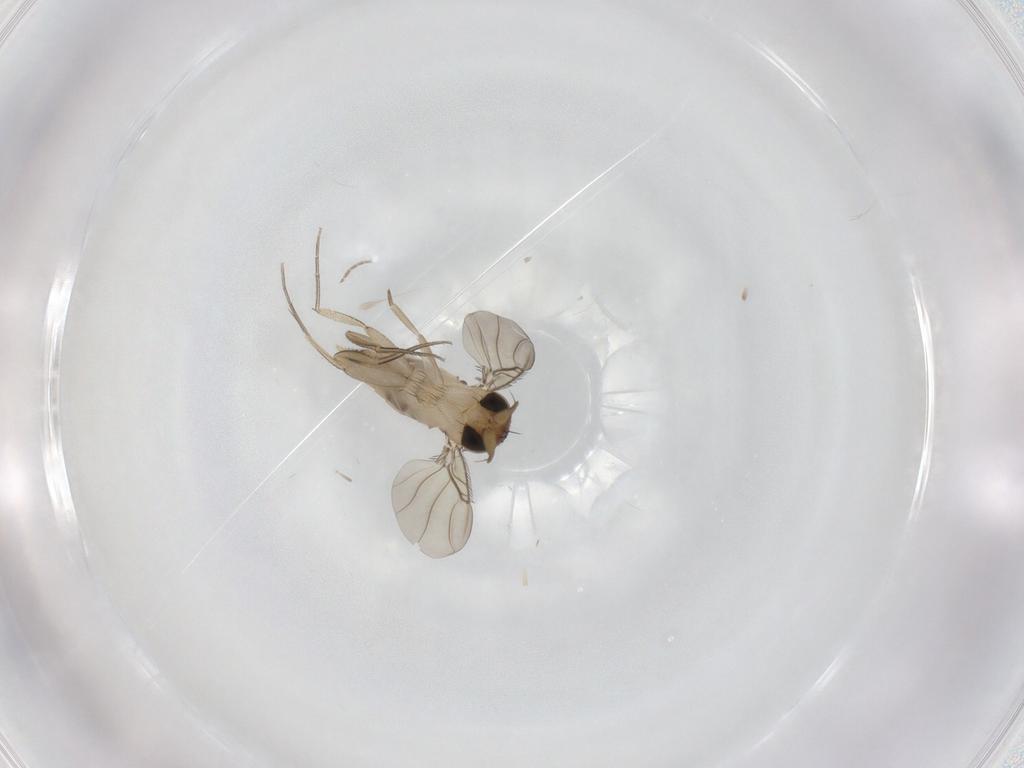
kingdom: Animalia
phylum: Arthropoda
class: Insecta
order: Diptera
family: Phoridae
